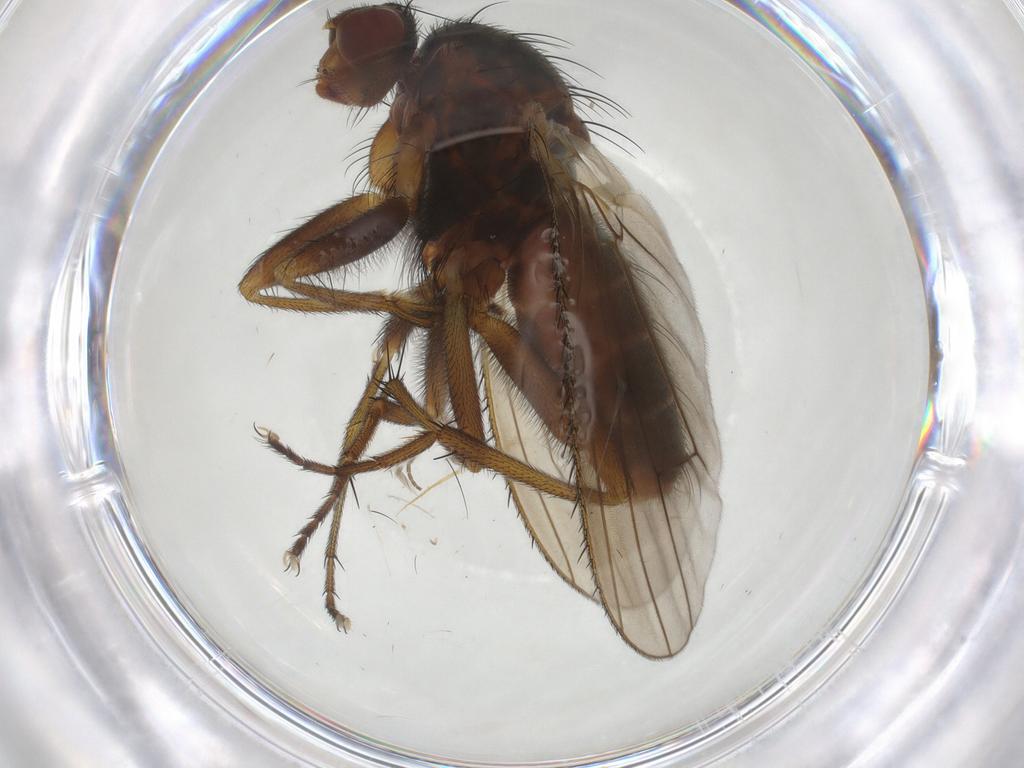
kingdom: Animalia
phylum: Arthropoda
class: Insecta
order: Diptera
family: Heleomyzidae
